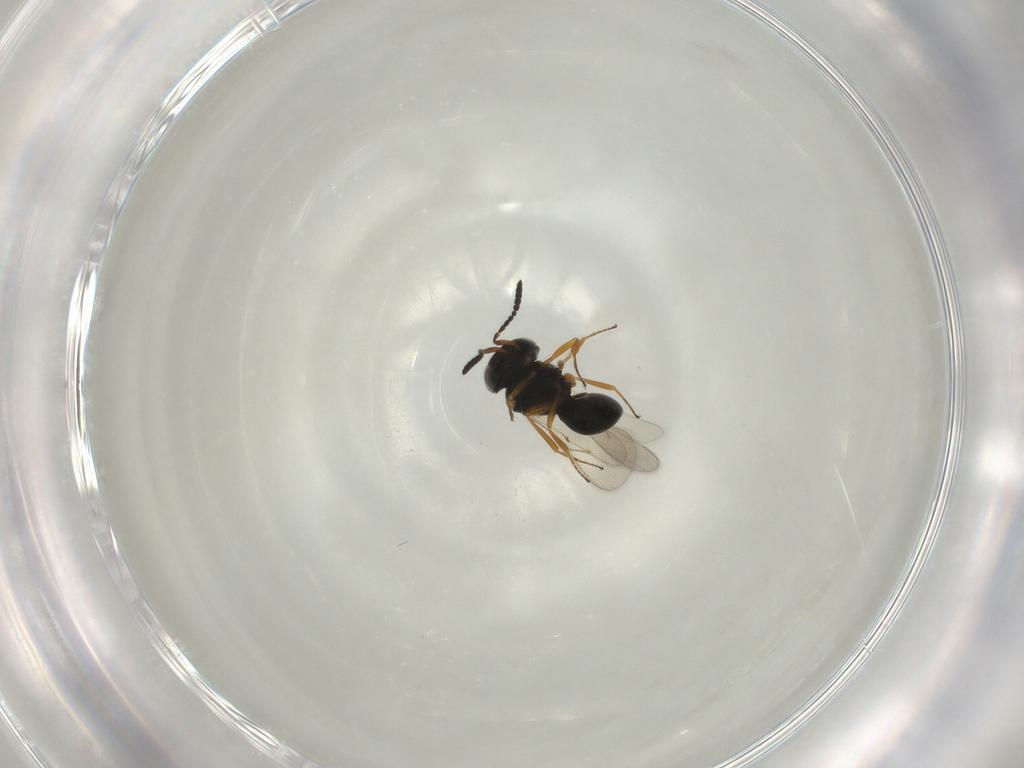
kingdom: Animalia
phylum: Arthropoda
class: Insecta
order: Hymenoptera
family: Scelionidae
